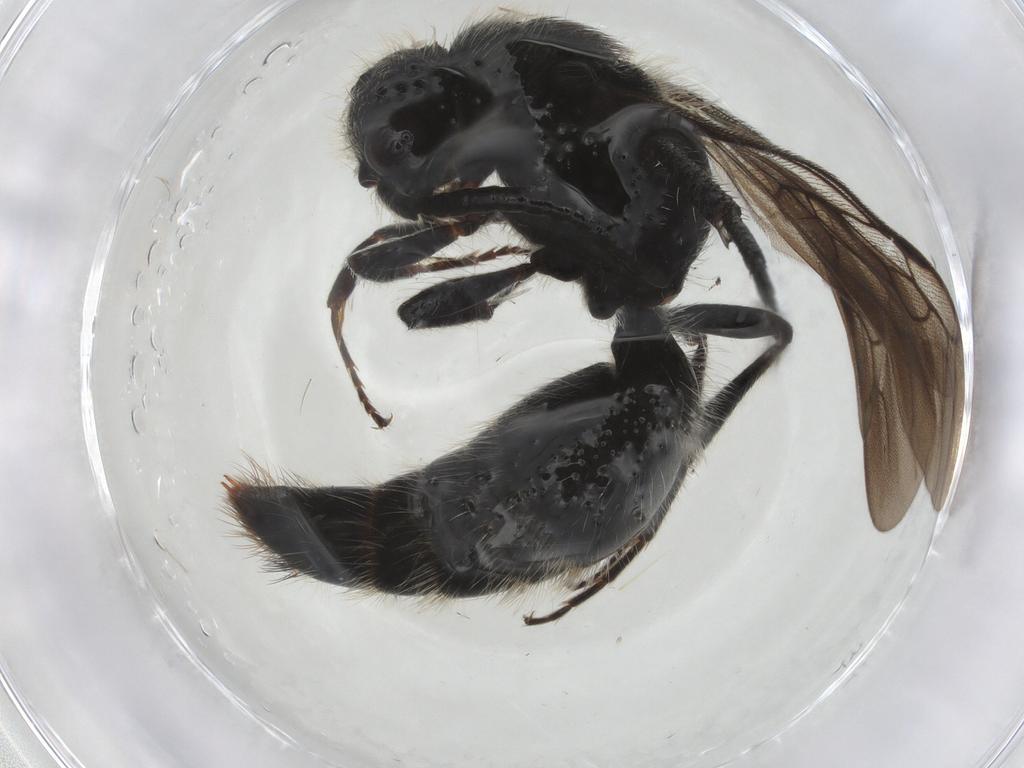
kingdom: Animalia
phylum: Arthropoda
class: Insecta
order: Hymenoptera
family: Mutillidae
